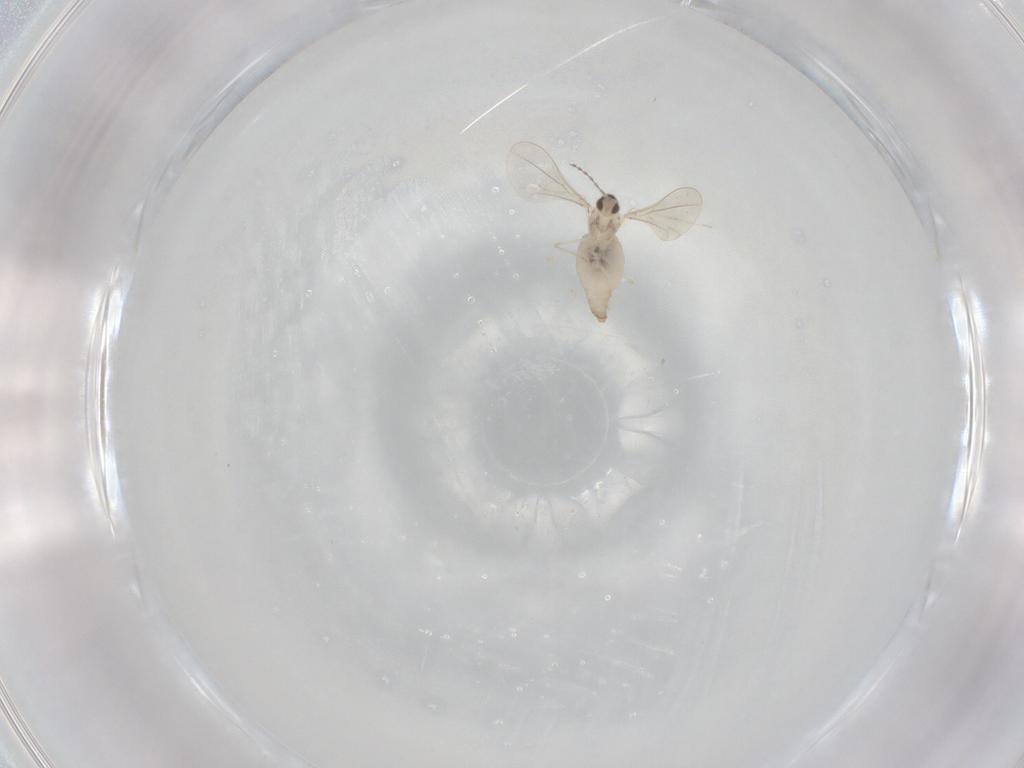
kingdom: Animalia
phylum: Arthropoda
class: Insecta
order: Diptera
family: Cecidomyiidae
